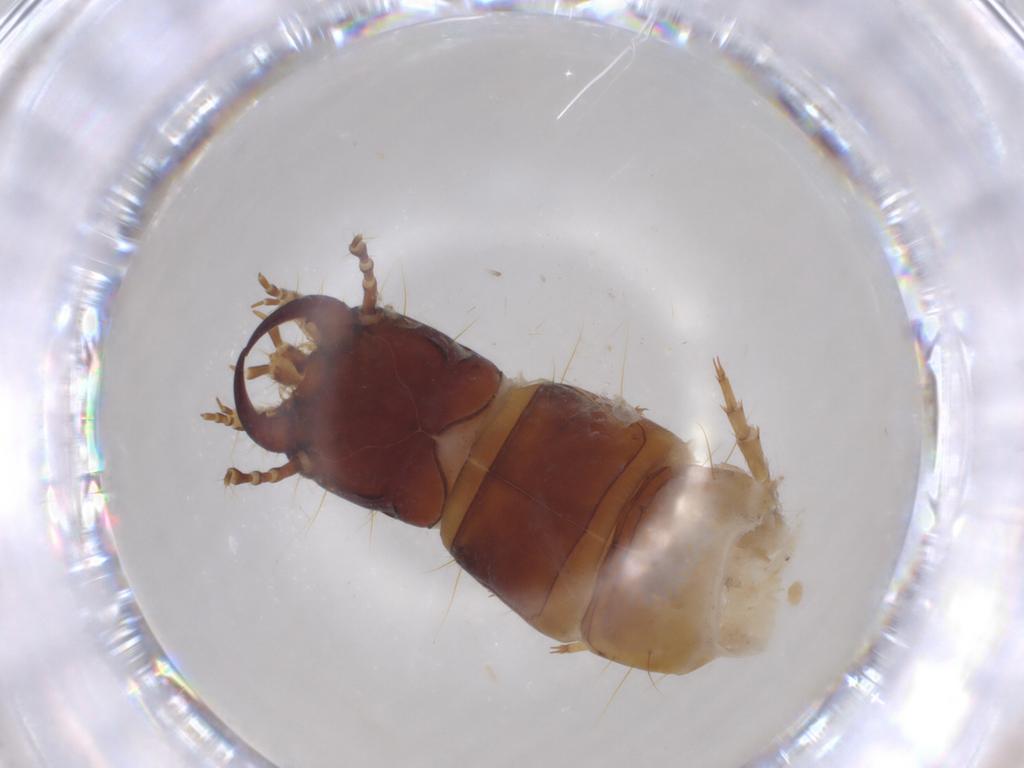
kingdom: Animalia
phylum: Arthropoda
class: Insecta
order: Coleoptera
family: Carabidae
